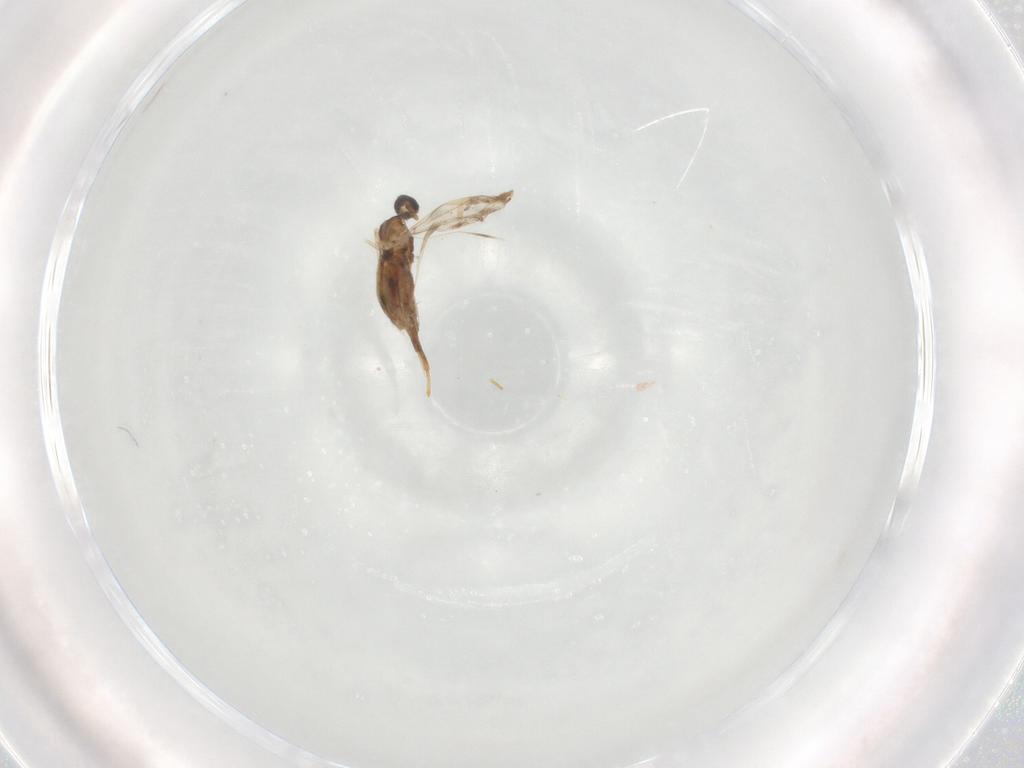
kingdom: Animalia
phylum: Arthropoda
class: Insecta
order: Diptera
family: Cecidomyiidae
